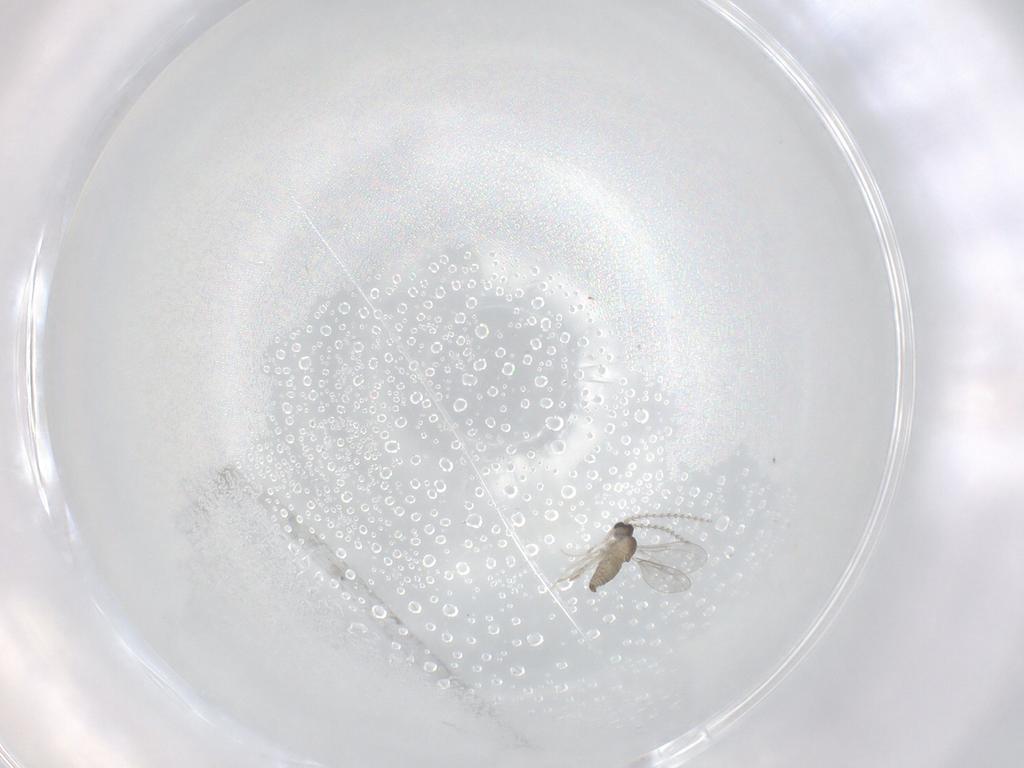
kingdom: Animalia
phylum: Arthropoda
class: Insecta
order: Diptera
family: Cecidomyiidae
